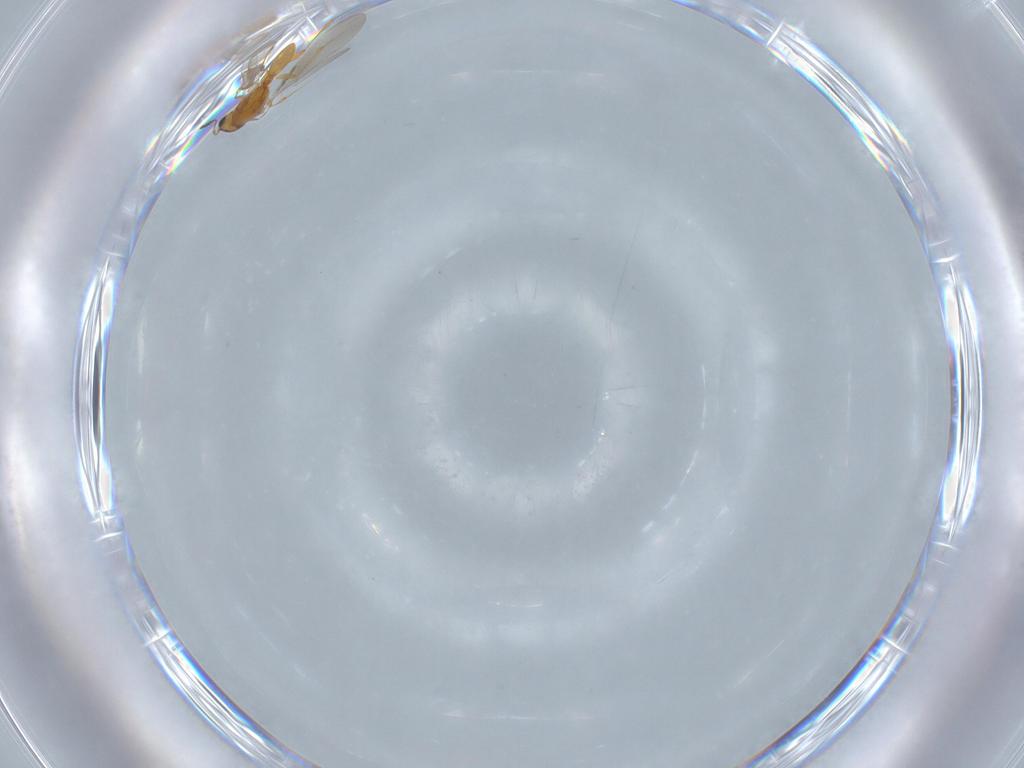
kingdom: Animalia
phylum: Arthropoda
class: Insecta
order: Hymenoptera
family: Platygastridae
